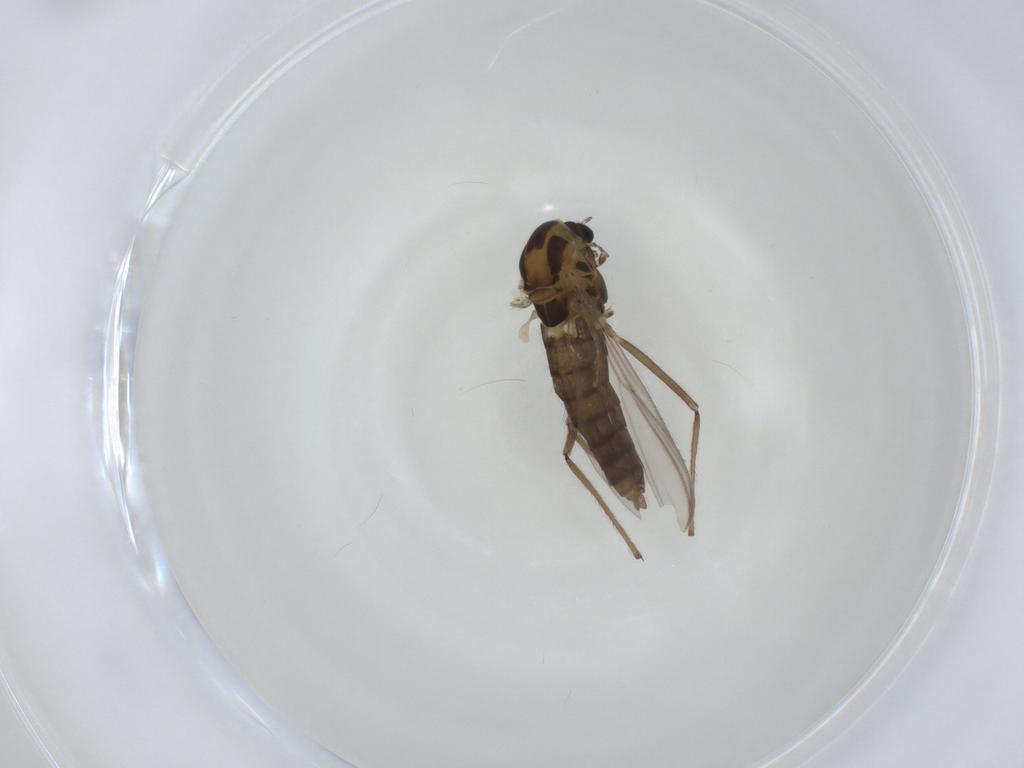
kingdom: Animalia
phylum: Arthropoda
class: Insecta
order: Diptera
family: Chironomidae
